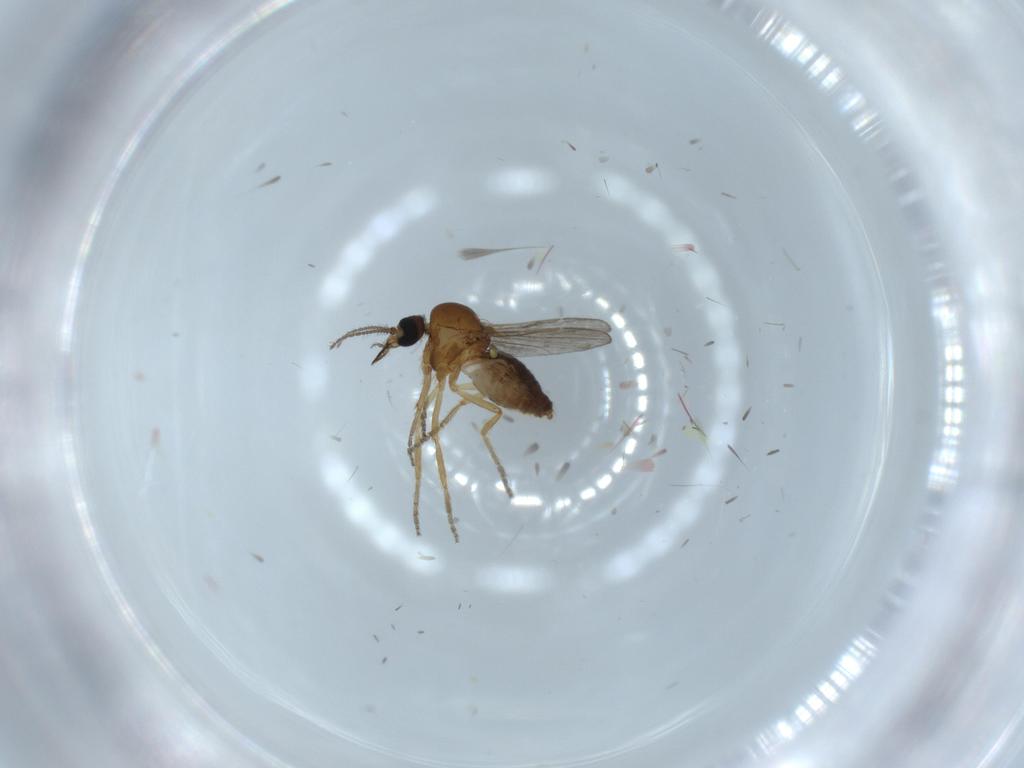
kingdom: Animalia
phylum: Arthropoda
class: Insecta
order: Diptera
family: Ceratopogonidae
